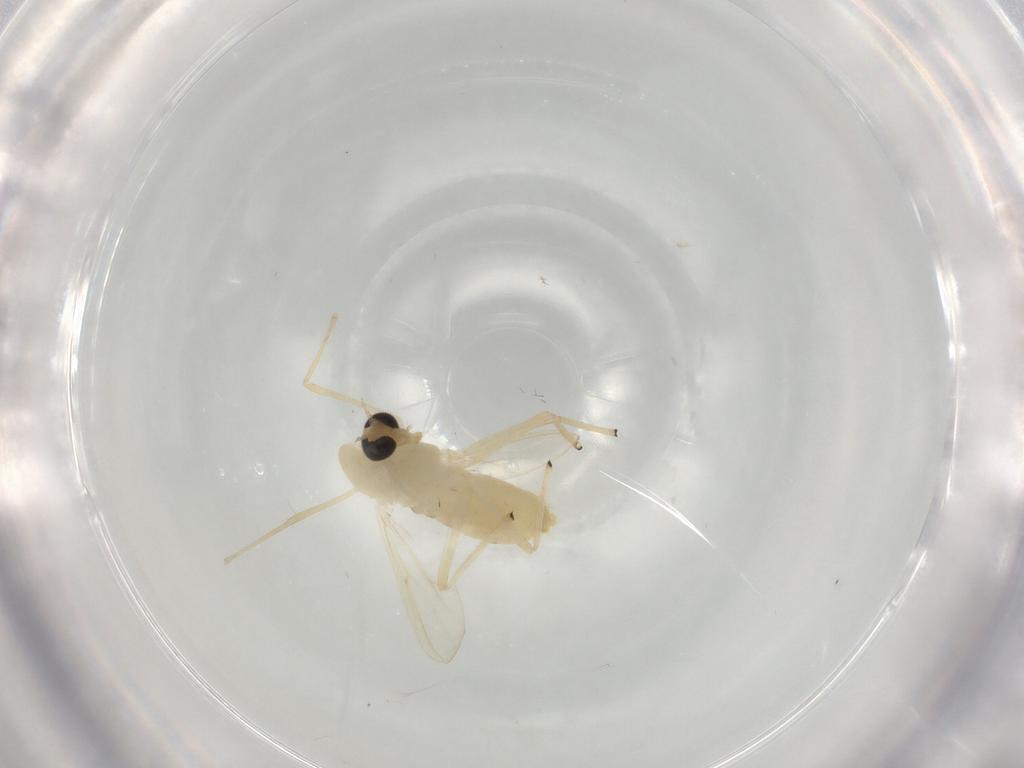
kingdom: Animalia
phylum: Arthropoda
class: Insecta
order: Diptera
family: Chironomidae
